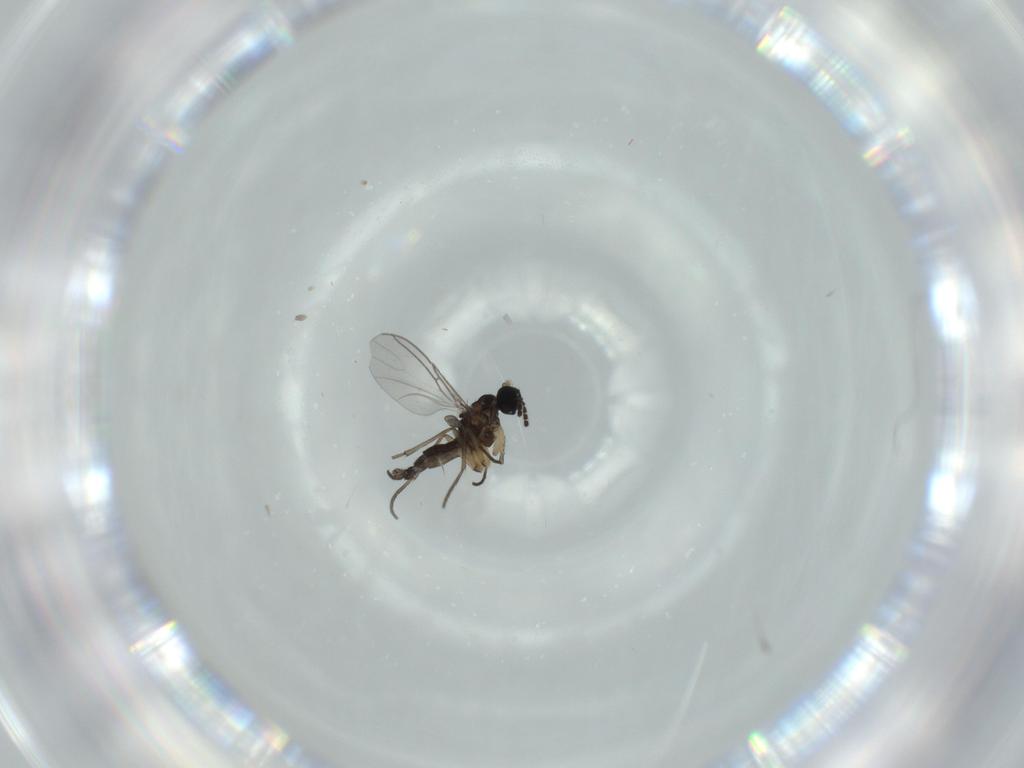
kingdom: Animalia
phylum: Arthropoda
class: Insecta
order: Diptera
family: Sciaridae
